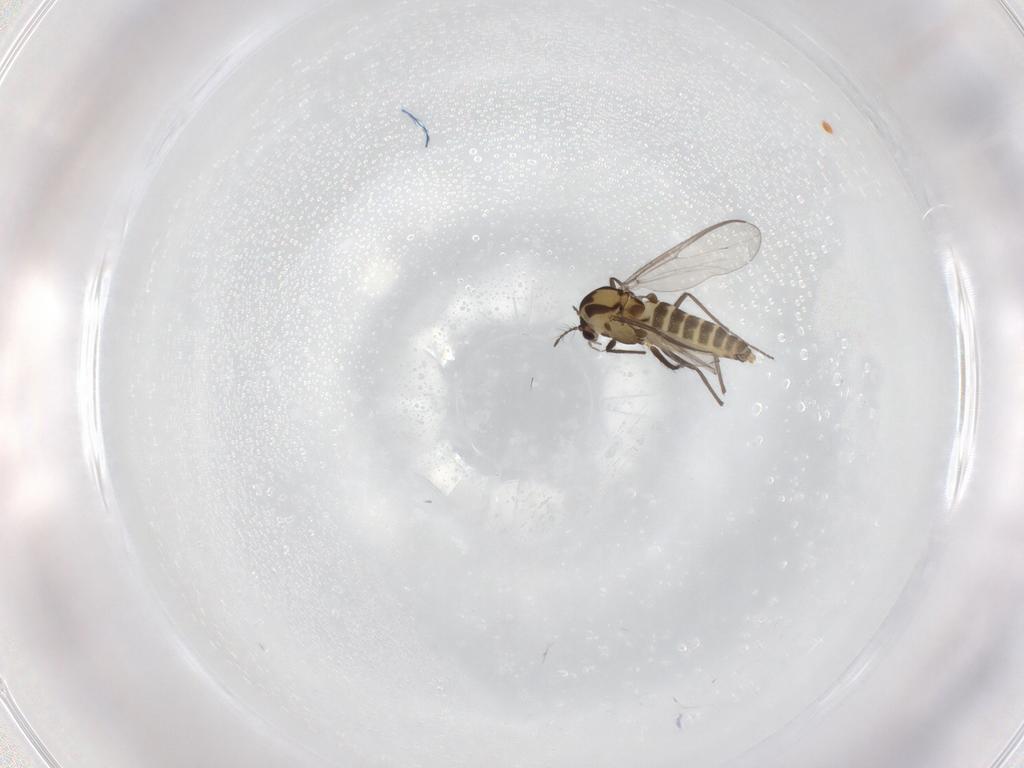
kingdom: Animalia
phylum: Arthropoda
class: Insecta
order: Diptera
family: Chironomidae
